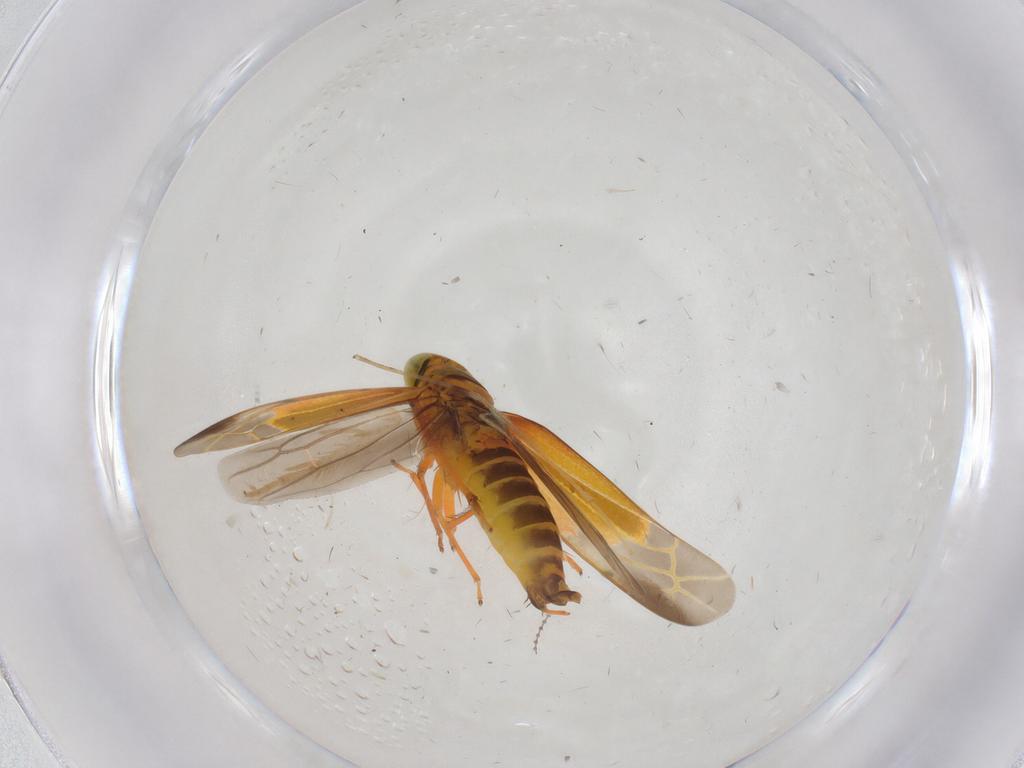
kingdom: Animalia
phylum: Arthropoda
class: Insecta
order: Hemiptera
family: Cicadellidae
